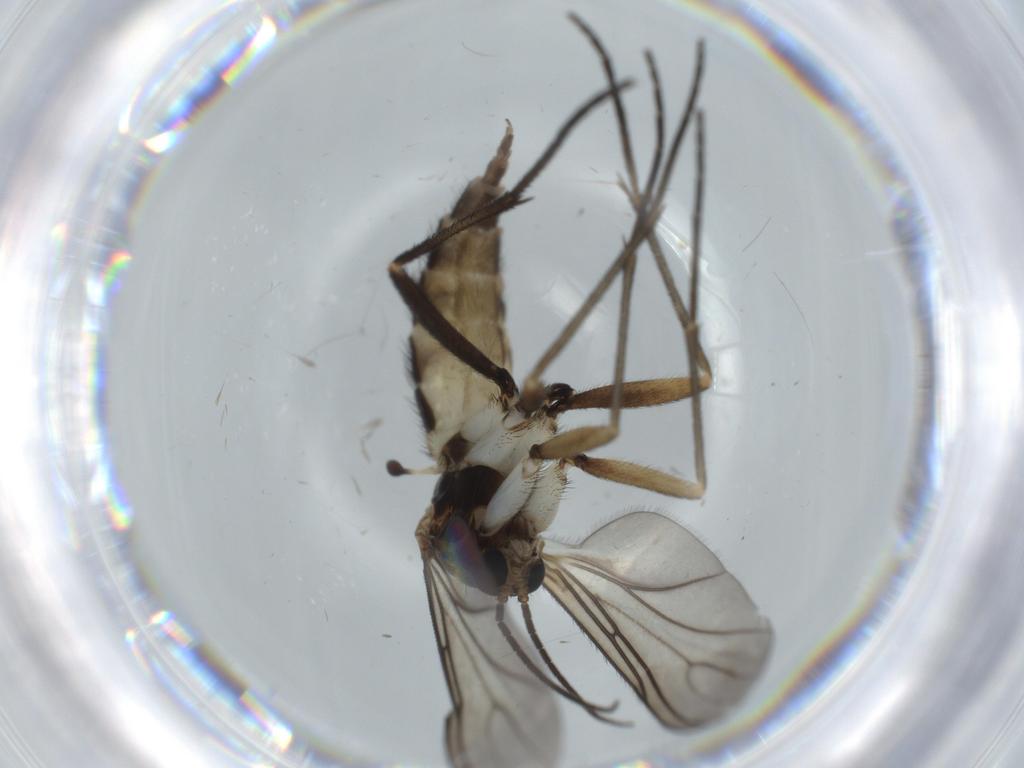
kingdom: Animalia
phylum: Arthropoda
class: Insecta
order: Diptera
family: Sciaridae
